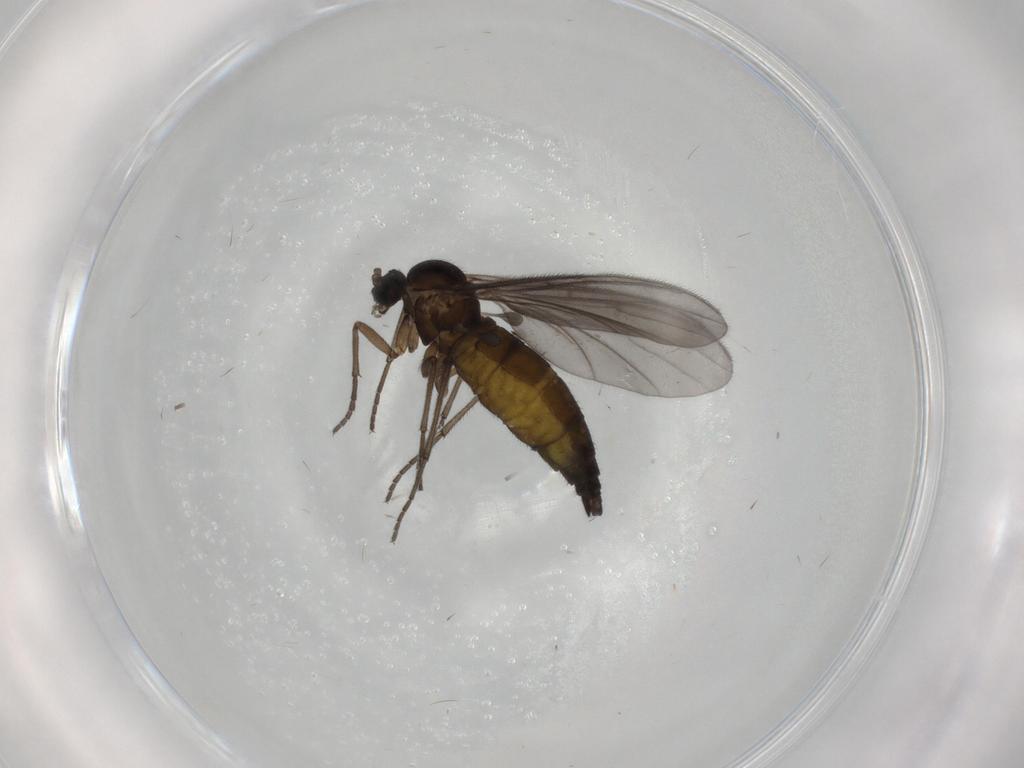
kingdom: Animalia
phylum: Arthropoda
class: Insecta
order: Diptera
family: Sciaridae
